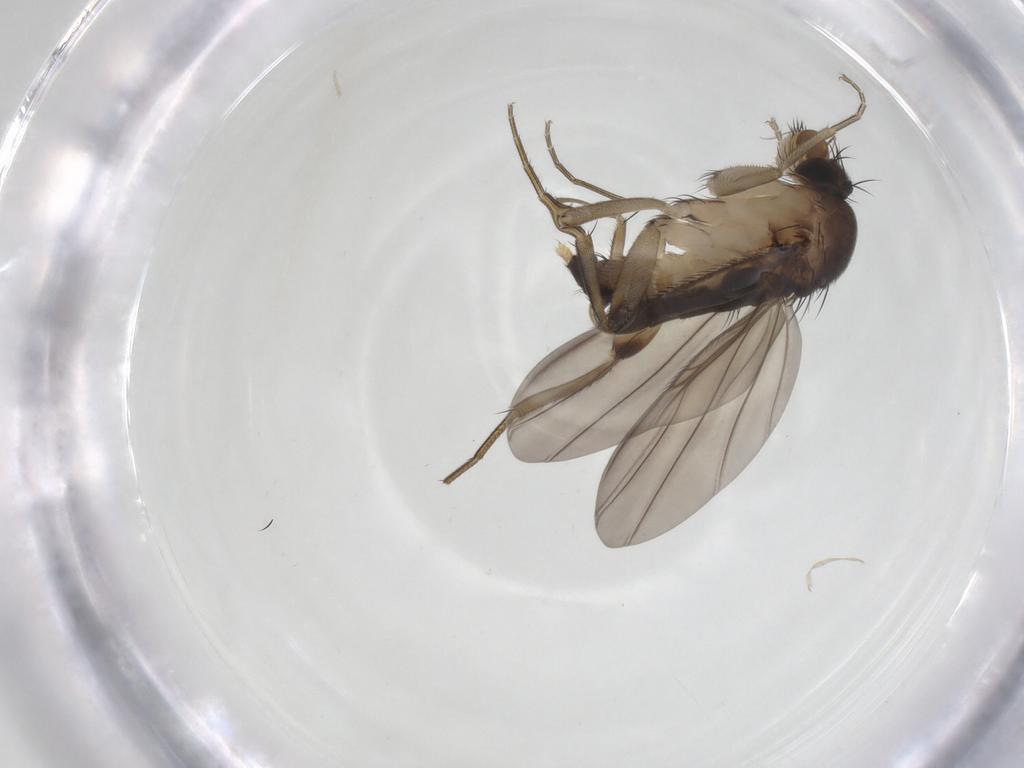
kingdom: Animalia
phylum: Arthropoda
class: Insecta
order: Diptera
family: Phoridae
